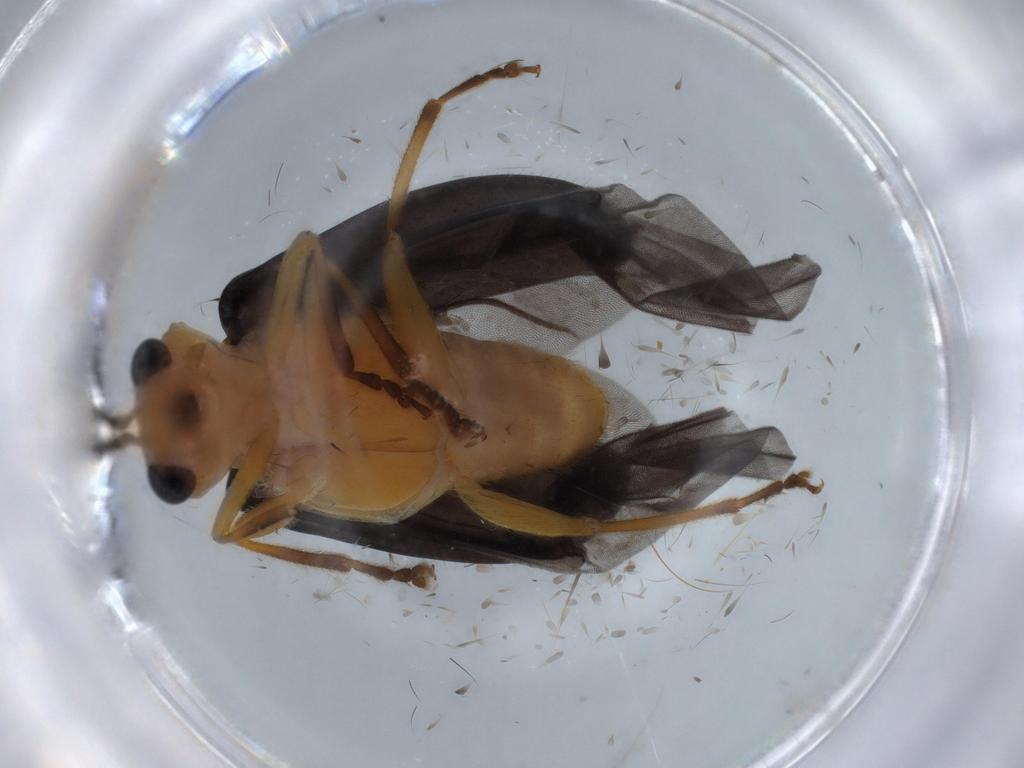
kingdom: Animalia
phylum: Arthropoda
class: Insecta
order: Coleoptera
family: Chrysomelidae
